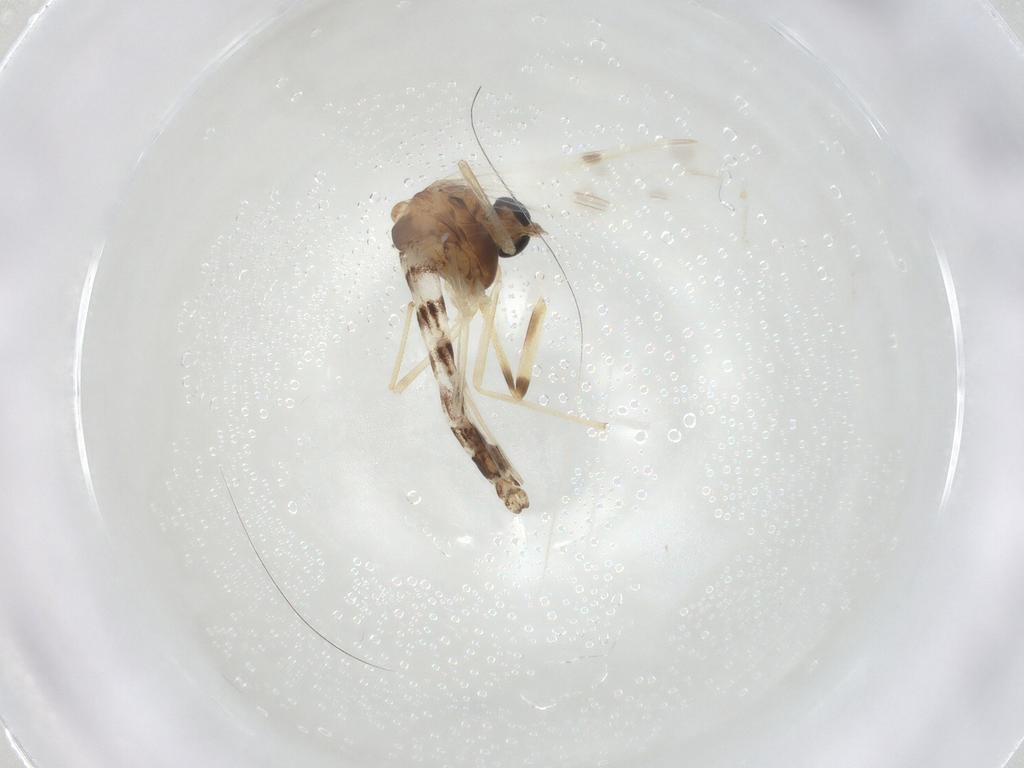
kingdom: Animalia
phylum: Arthropoda
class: Insecta
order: Diptera
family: Chironomidae
